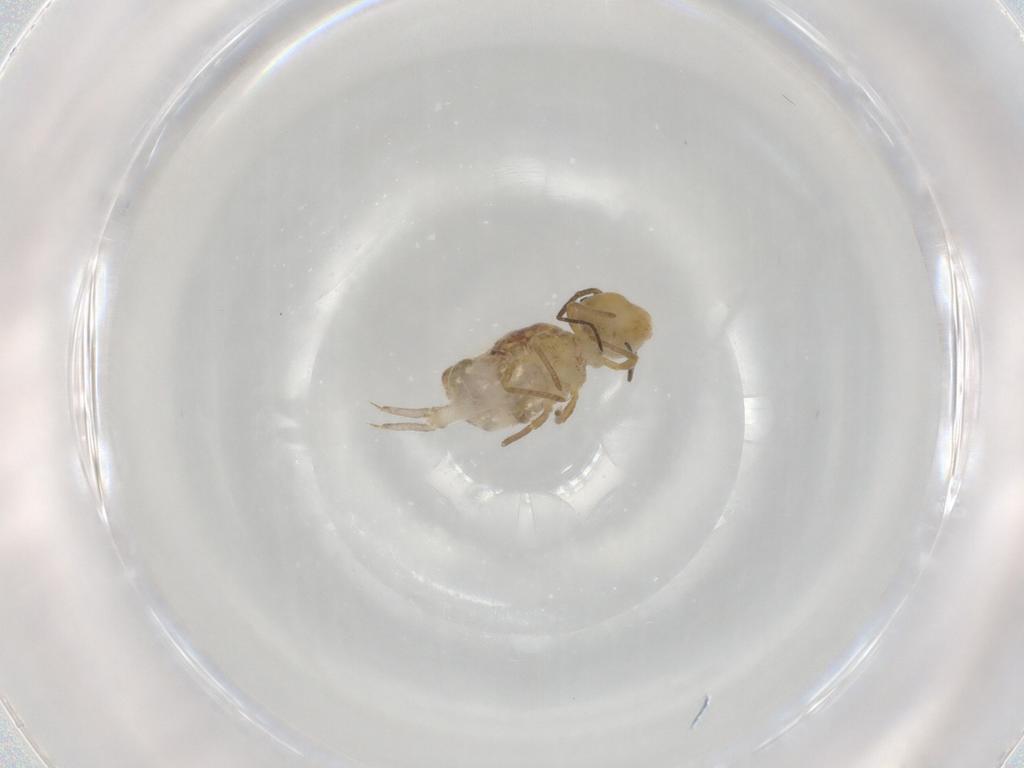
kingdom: Animalia
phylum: Arthropoda
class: Collembola
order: Symphypleona
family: Sminthuridae
